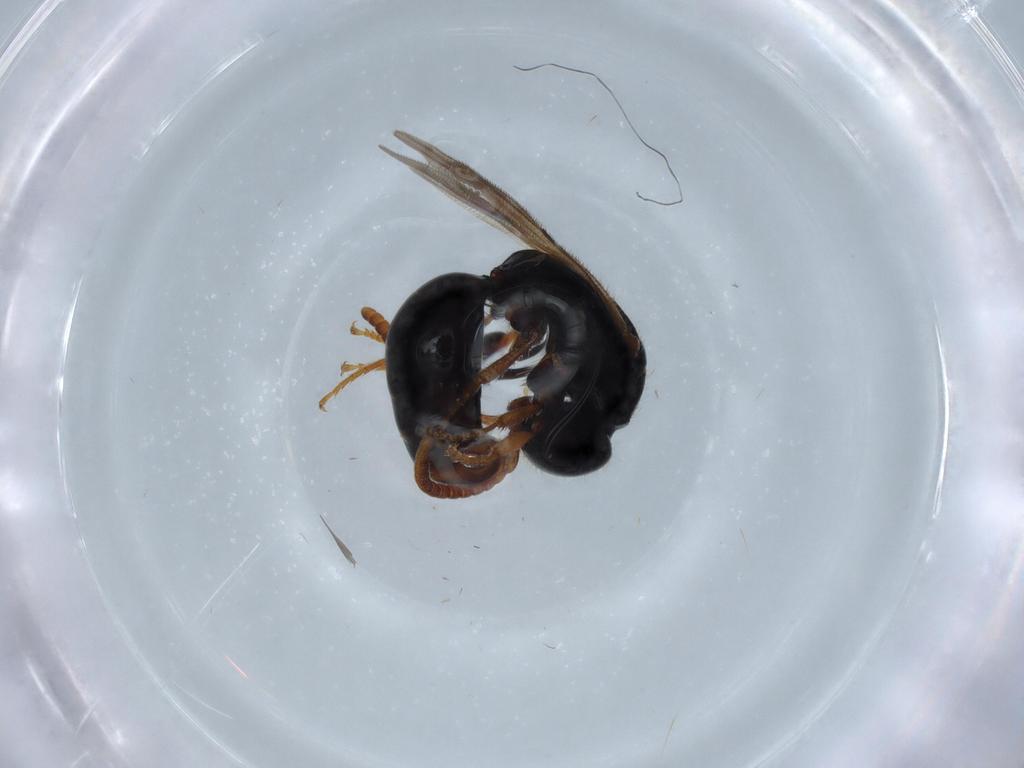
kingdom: Animalia
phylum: Arthropoda
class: Insecta
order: Hymenoptera
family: Bethylidae
